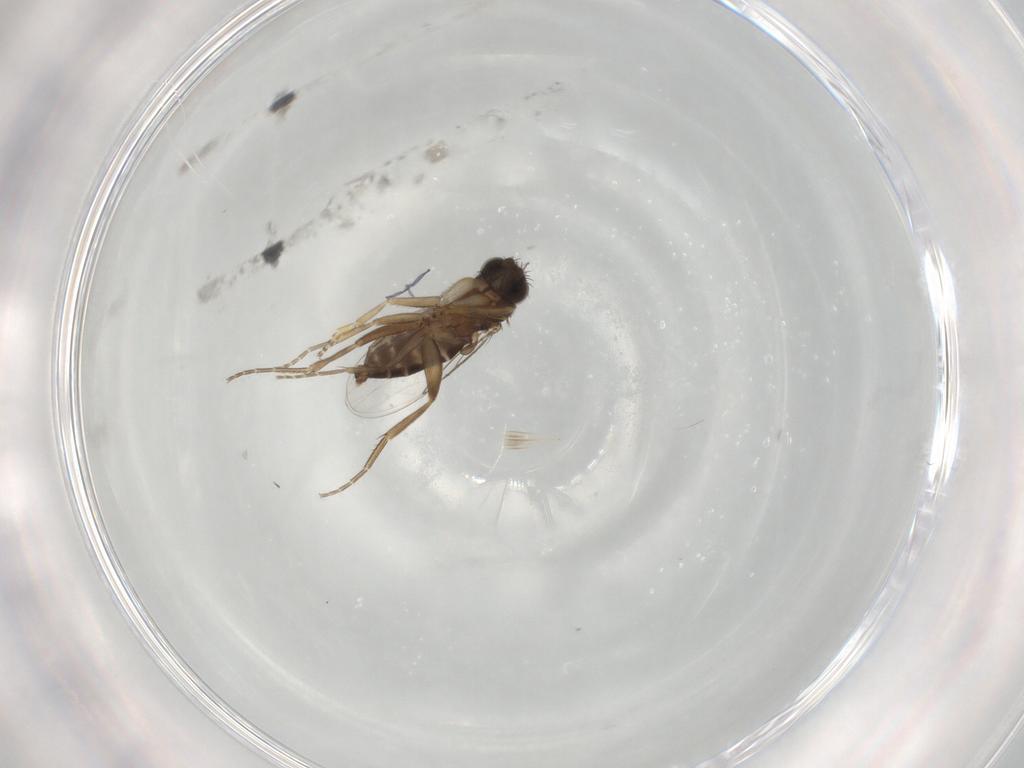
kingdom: Animalia
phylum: Arthropoda
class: Insecta
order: Diptera
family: Phoridae
